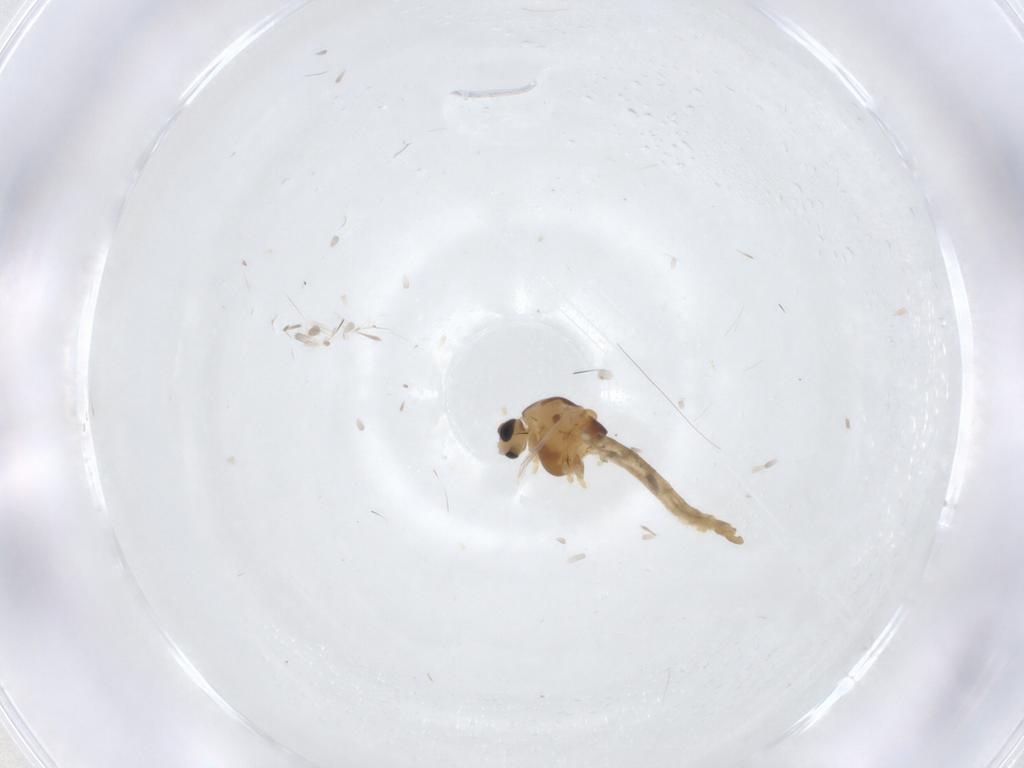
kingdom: Animalia
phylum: Arthropoda
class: Insecta
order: Diptera
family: Chironomidae
